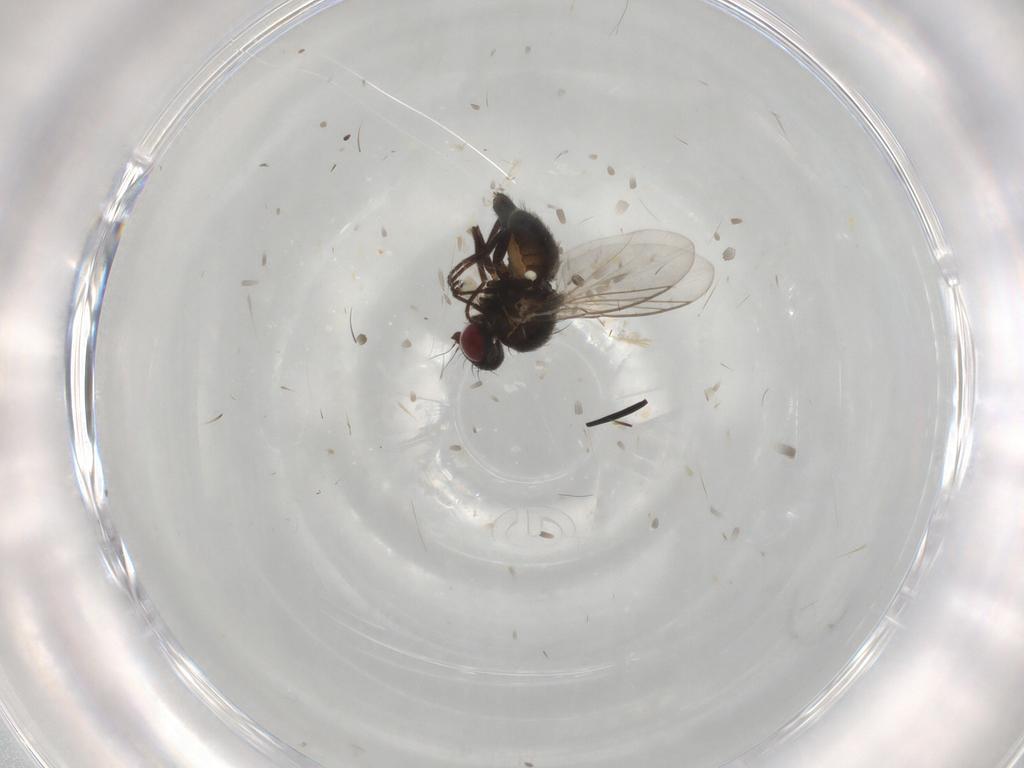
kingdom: Animalia
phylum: Arthropoda
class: Insecta
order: Diptera
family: Agromyzidae
